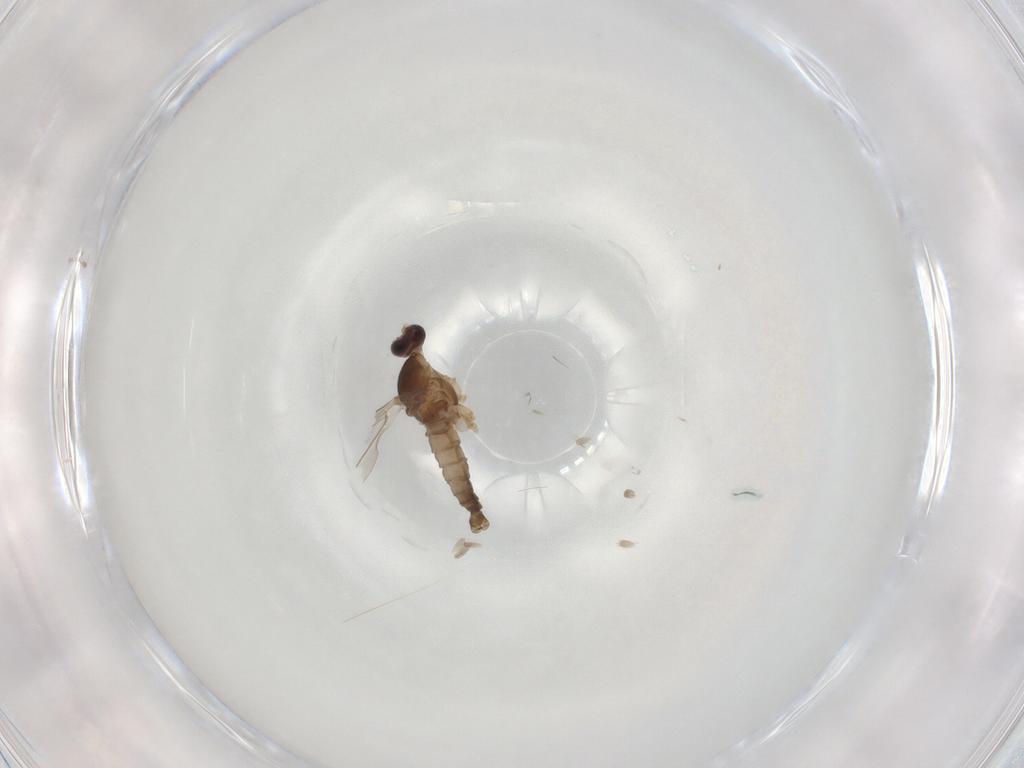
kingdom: Animalia
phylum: Arthropoda
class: Insecta
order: Diptera
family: Cecidomyiidae
